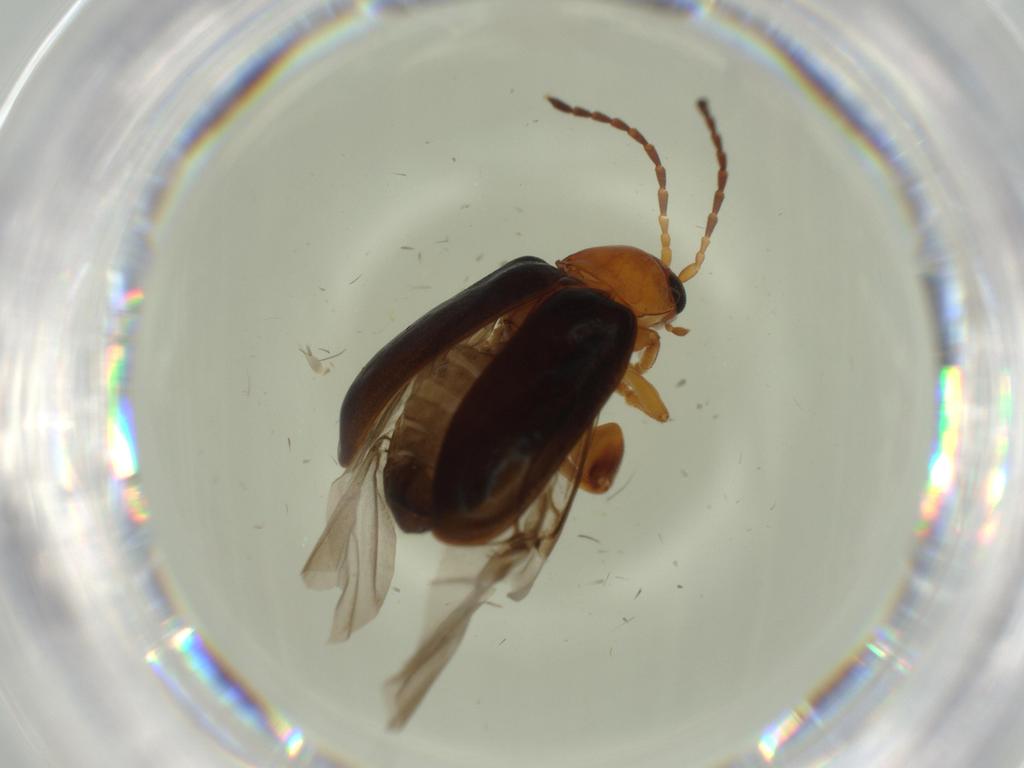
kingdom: Animalia
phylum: Arthropoda
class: Insecta
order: Coleoptera
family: Chrysomelidae
